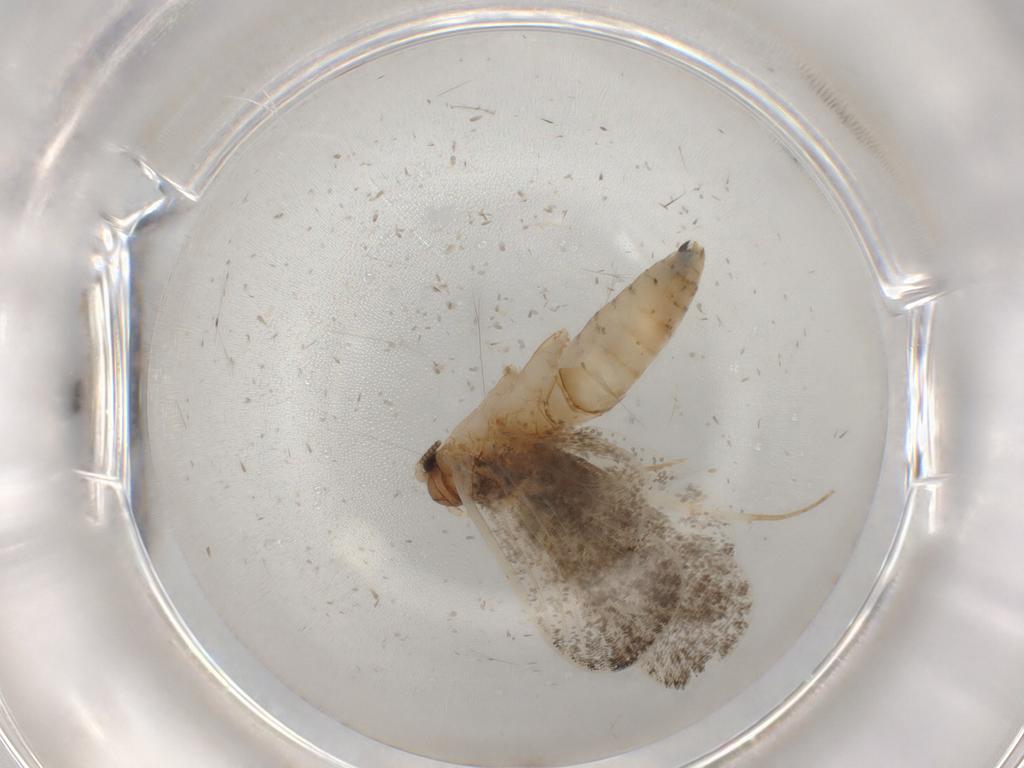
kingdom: Animalia
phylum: Arthropoda
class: Insecta
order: Lepidoptera
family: Tineidae
